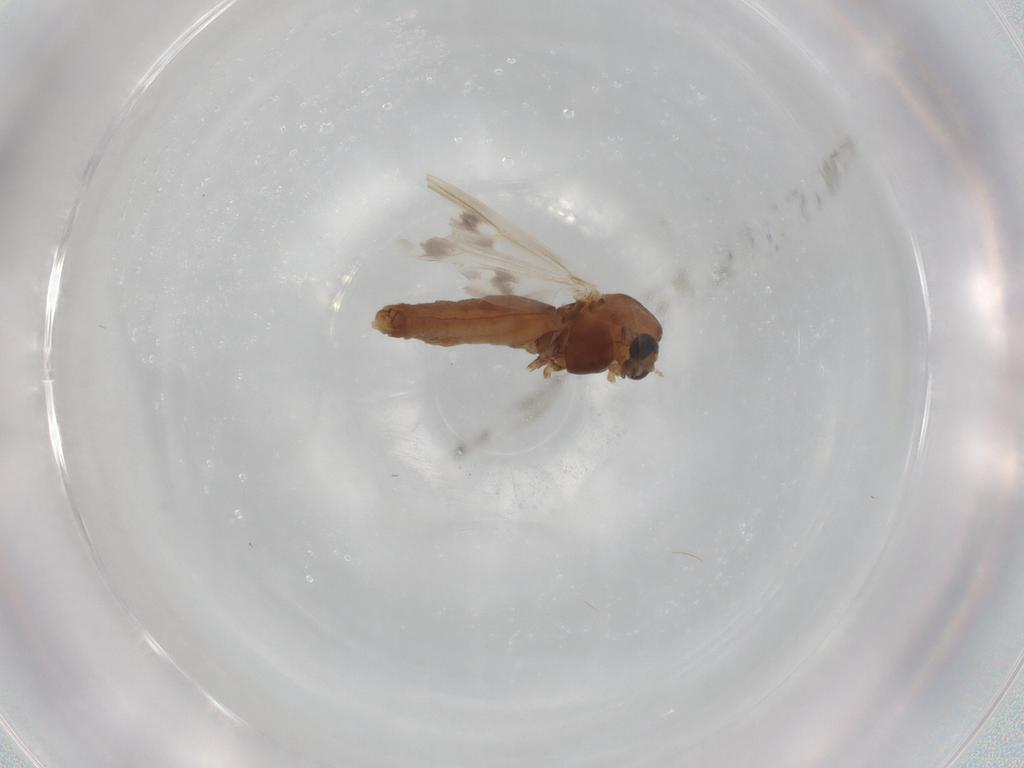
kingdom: Animalia
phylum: Arthropoda
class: Insecta
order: Diptera
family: Chironomidae
